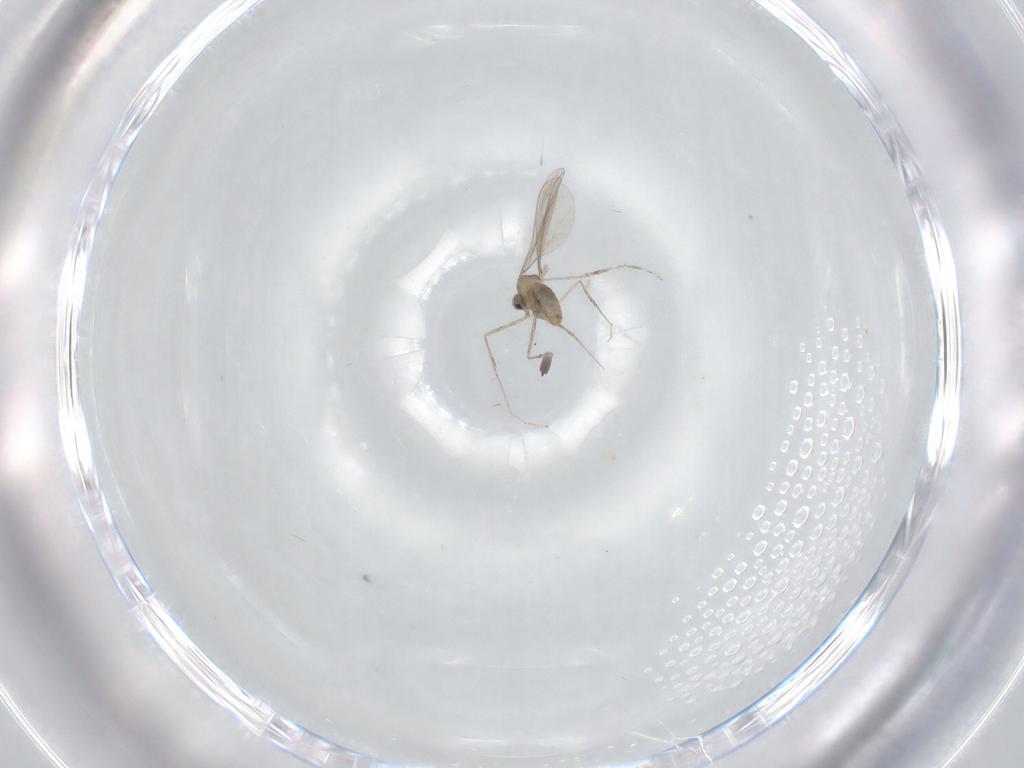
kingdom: Animalia
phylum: Arthropoda
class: Insecta
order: Diptera
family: Cecidomyiidae
